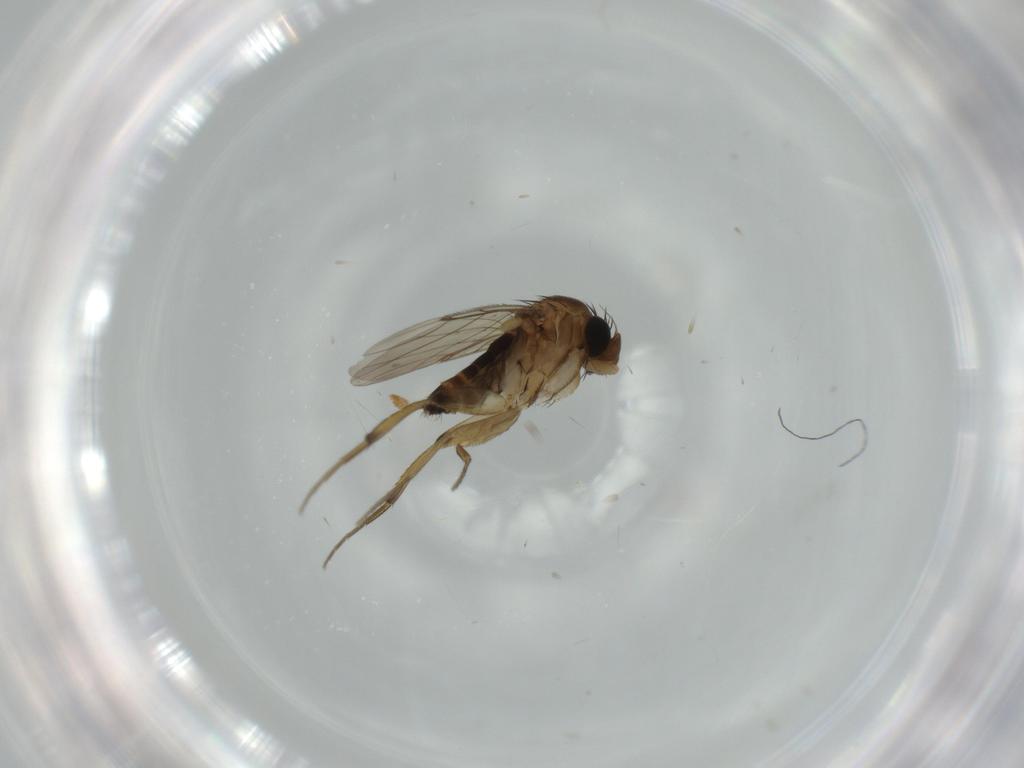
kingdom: Animalia
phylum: Arthropoda
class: Insecta
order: Diptera
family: Phoridae
